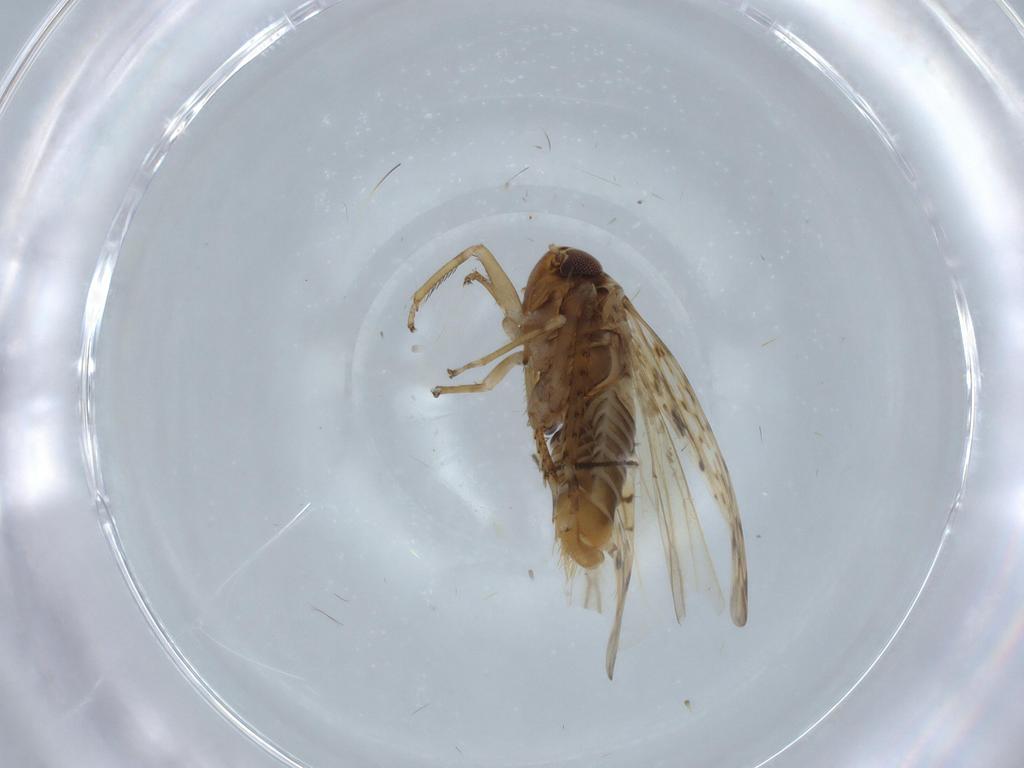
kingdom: Animalia
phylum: Arthropoda
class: Insecta
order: Hemiptera
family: Cicadellidae
